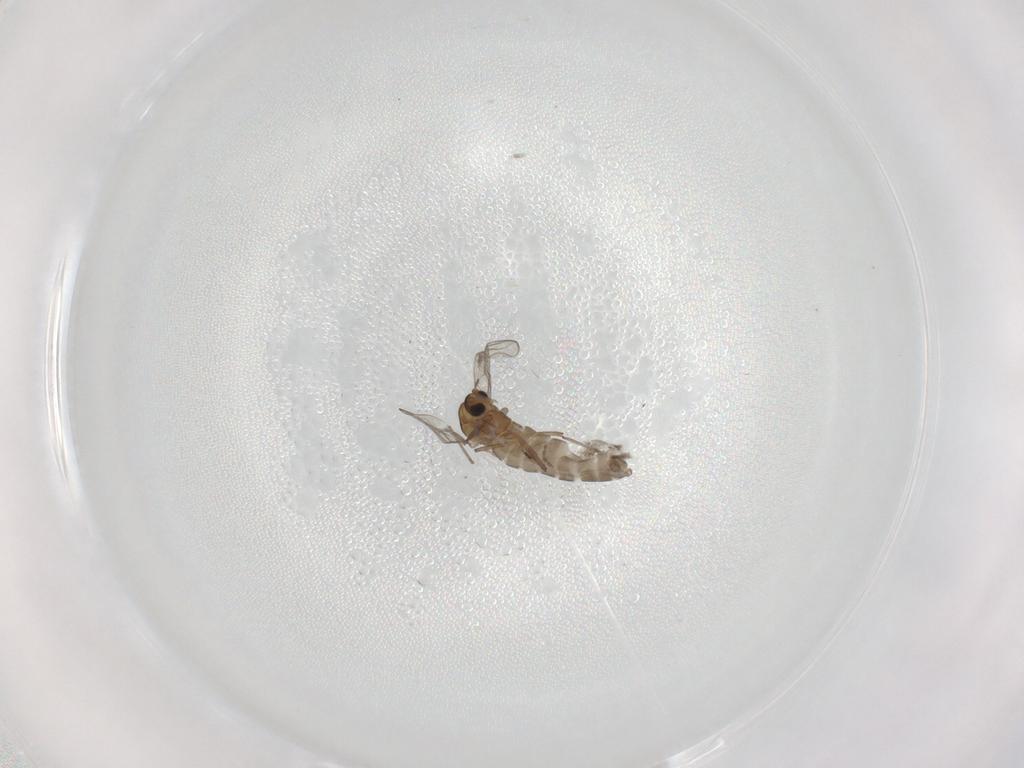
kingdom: Animalia
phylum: Arthropoda
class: Insecta
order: Diptera
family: Chironomidae
